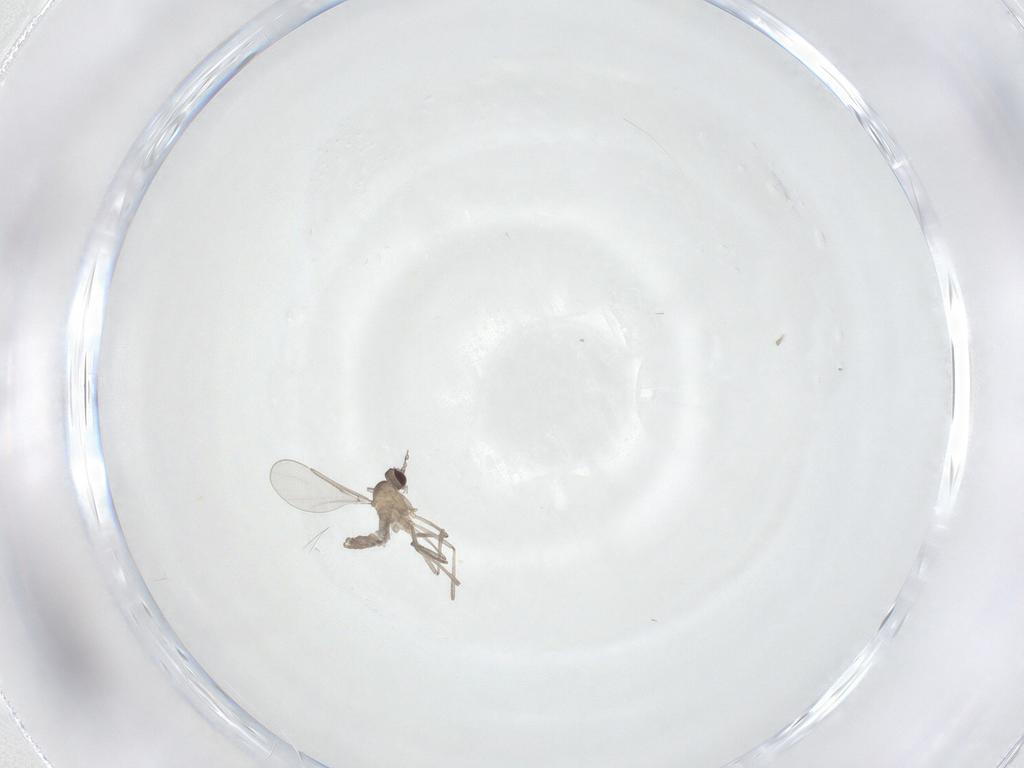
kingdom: Animalia
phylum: Arthropoda
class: Insecta
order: Diptera
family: Cecidomyiidae
